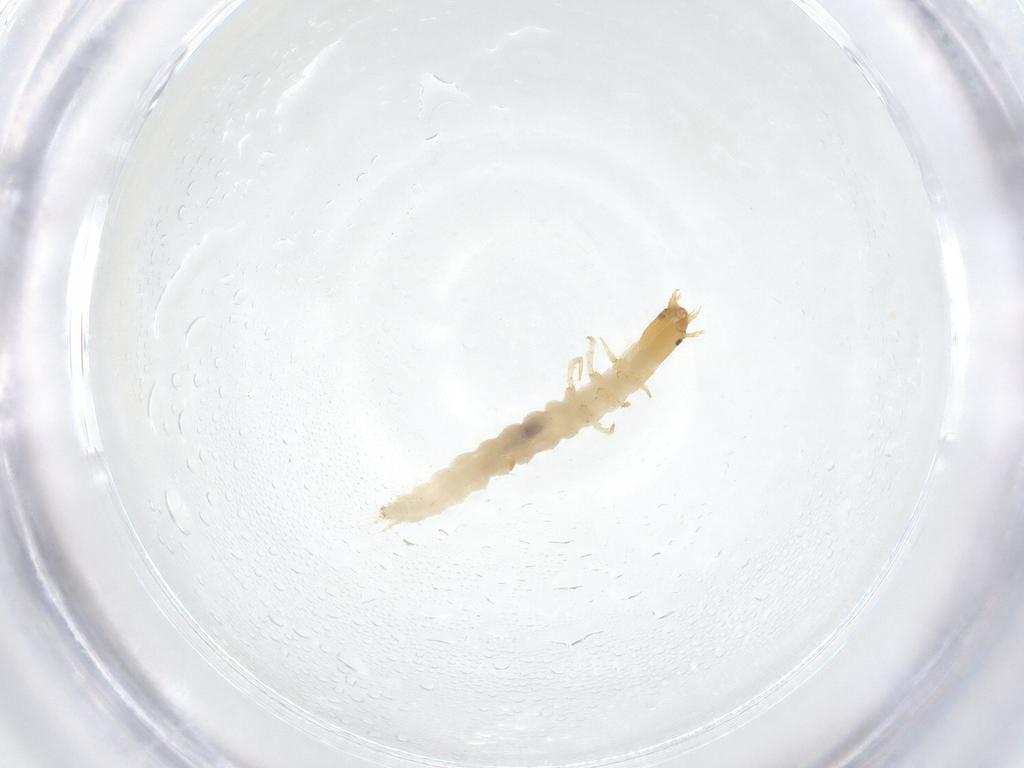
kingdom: Animalia
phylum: Arthropoda
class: Insecta
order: Coleoptera
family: Carabidae
